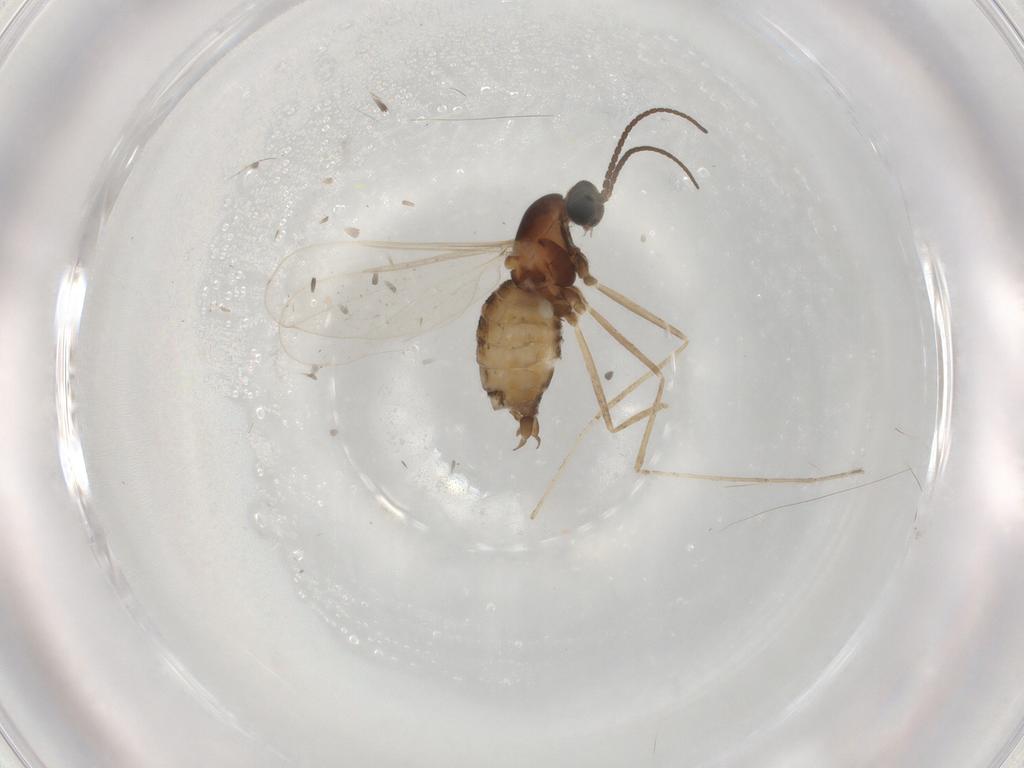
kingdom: Animalia
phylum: Arthropoda
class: Insecta
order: Diptera
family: Cecidomyiidae
